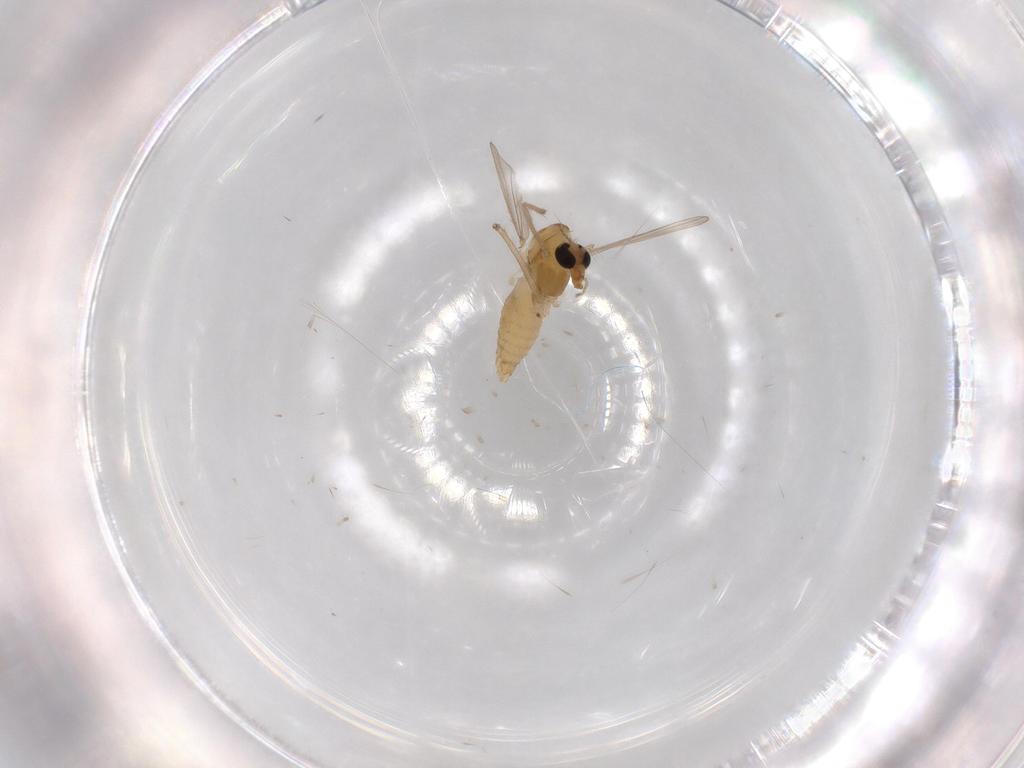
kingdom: Animalia
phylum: Arthropoda
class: Insecta
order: Diptera
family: Chironomidae
